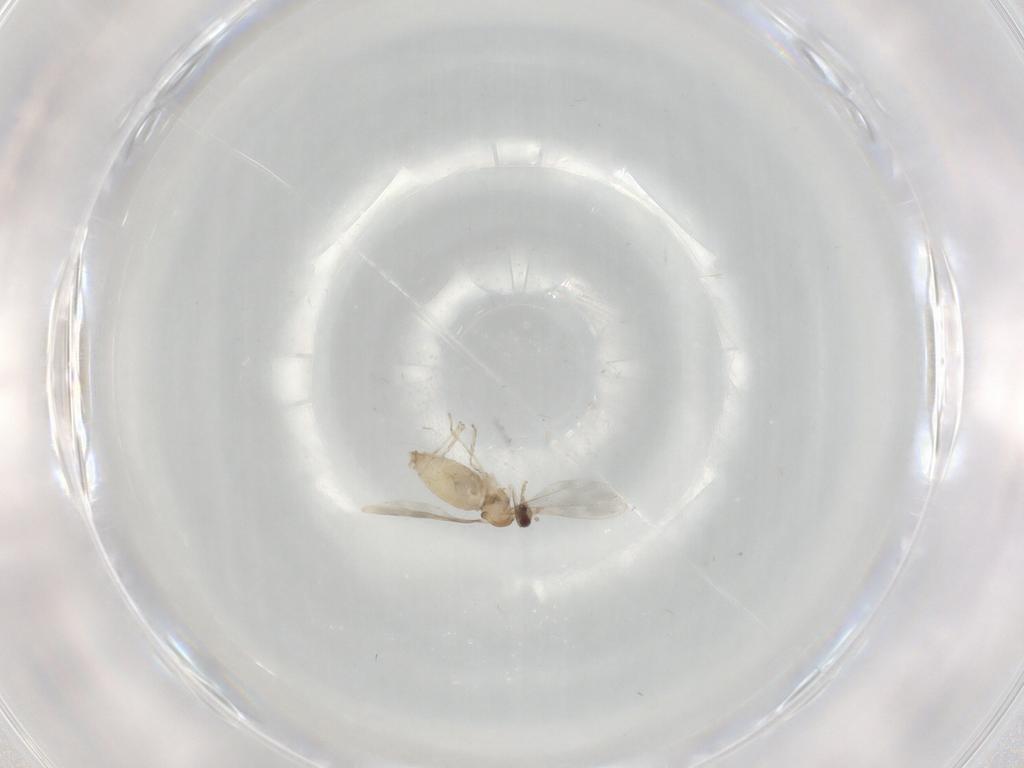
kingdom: Animalia
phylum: Arthropoda
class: Insecta
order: Diptera
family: Cecidomyiidae
